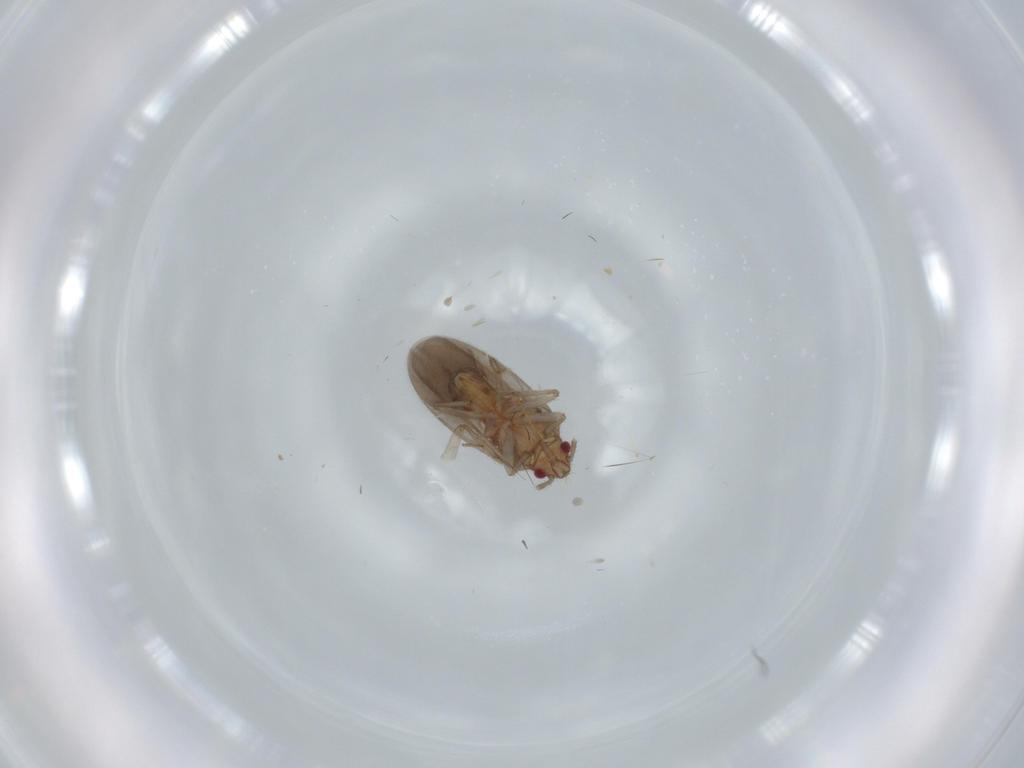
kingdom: Animalia
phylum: Arthropoda
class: Insecta
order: Hemiptera
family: Ceratocombidae
